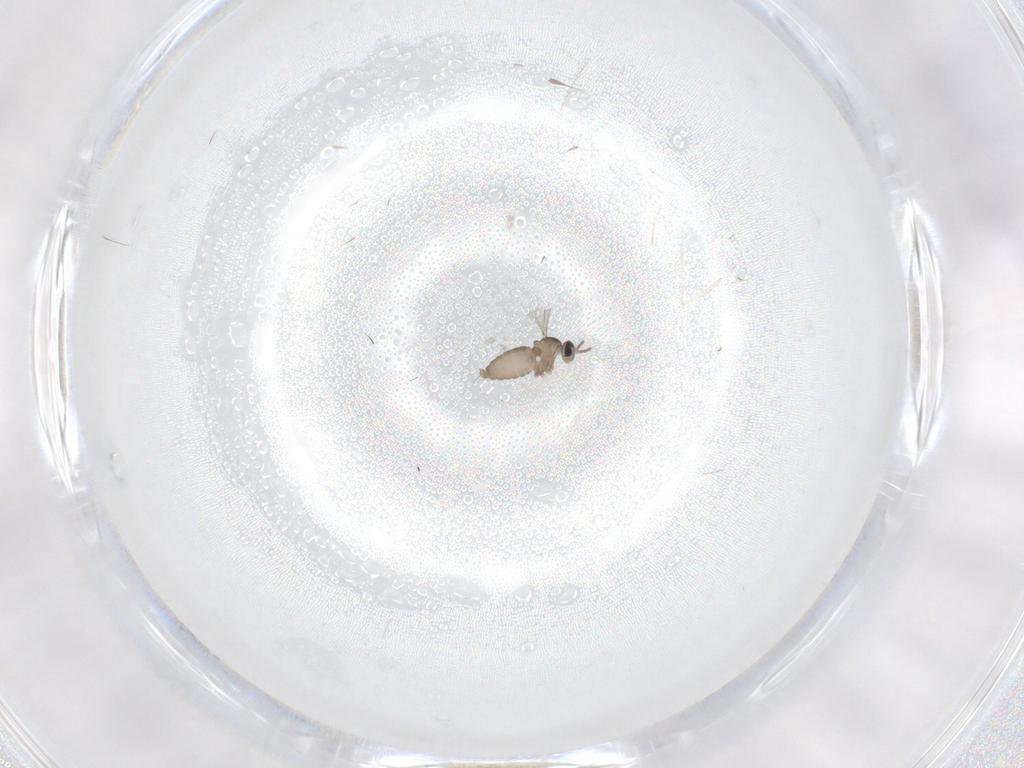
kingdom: Animalia
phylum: Arthropoda
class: Insecta
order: Diptera
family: Cecidomyiidae
